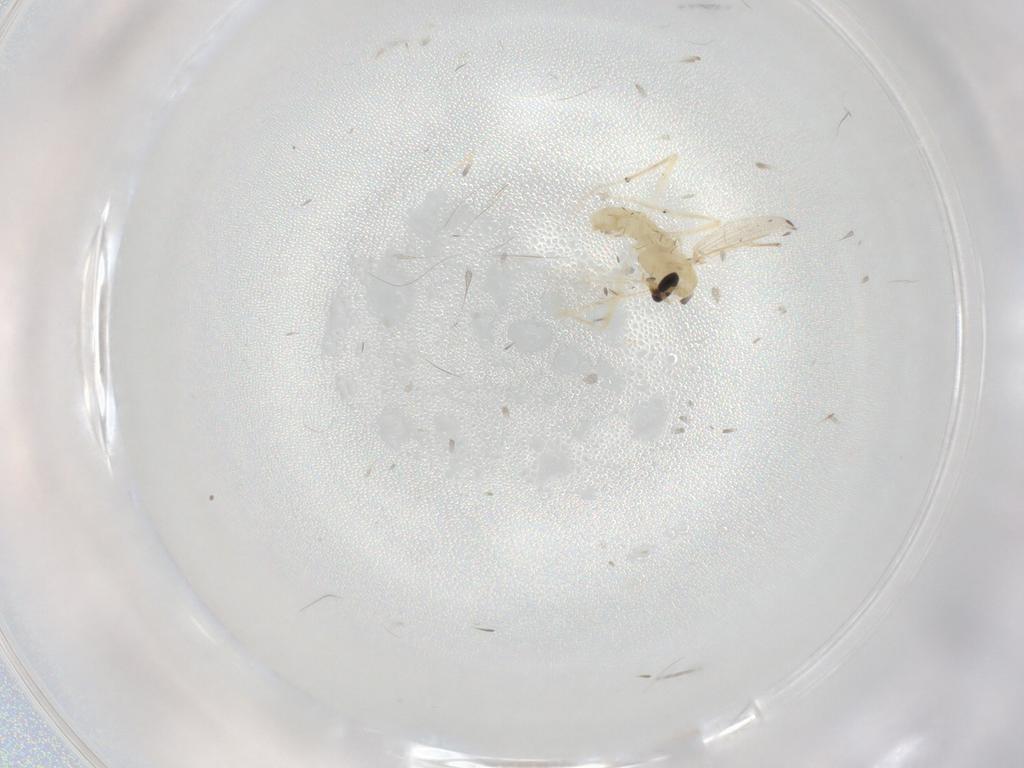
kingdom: Animalia
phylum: Arthropoda
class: Insecta
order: Diptera
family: Chironomidae
